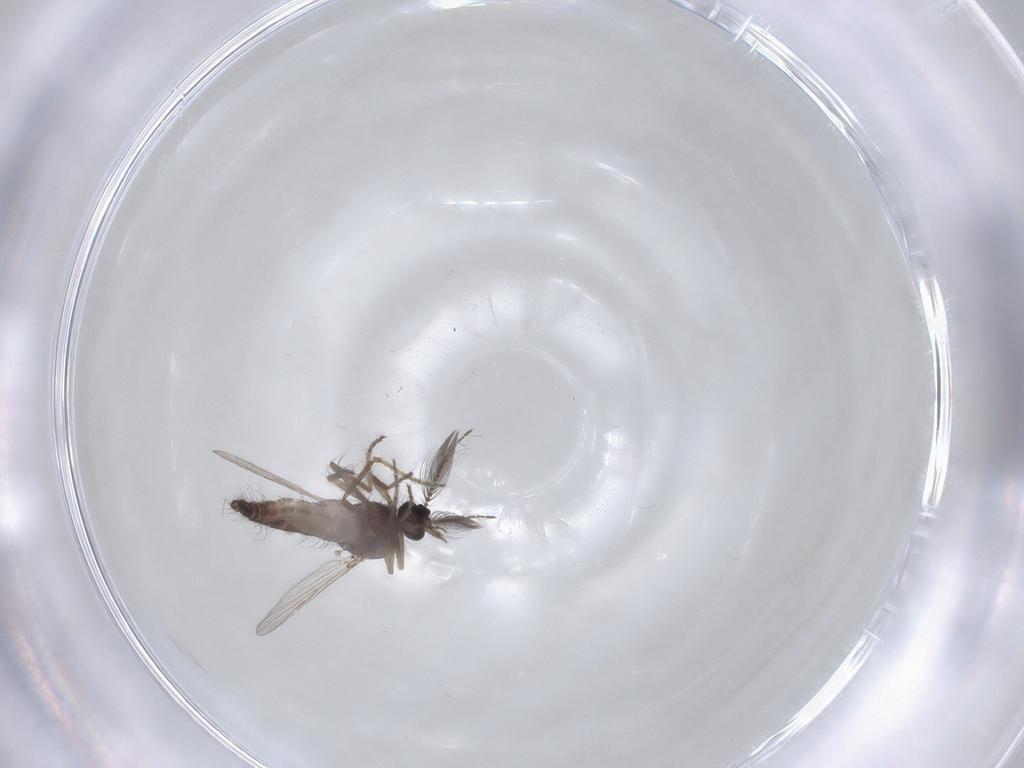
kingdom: Animalia
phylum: Arthropoda
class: Insecta
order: Diptera
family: Ceratopogonidae
